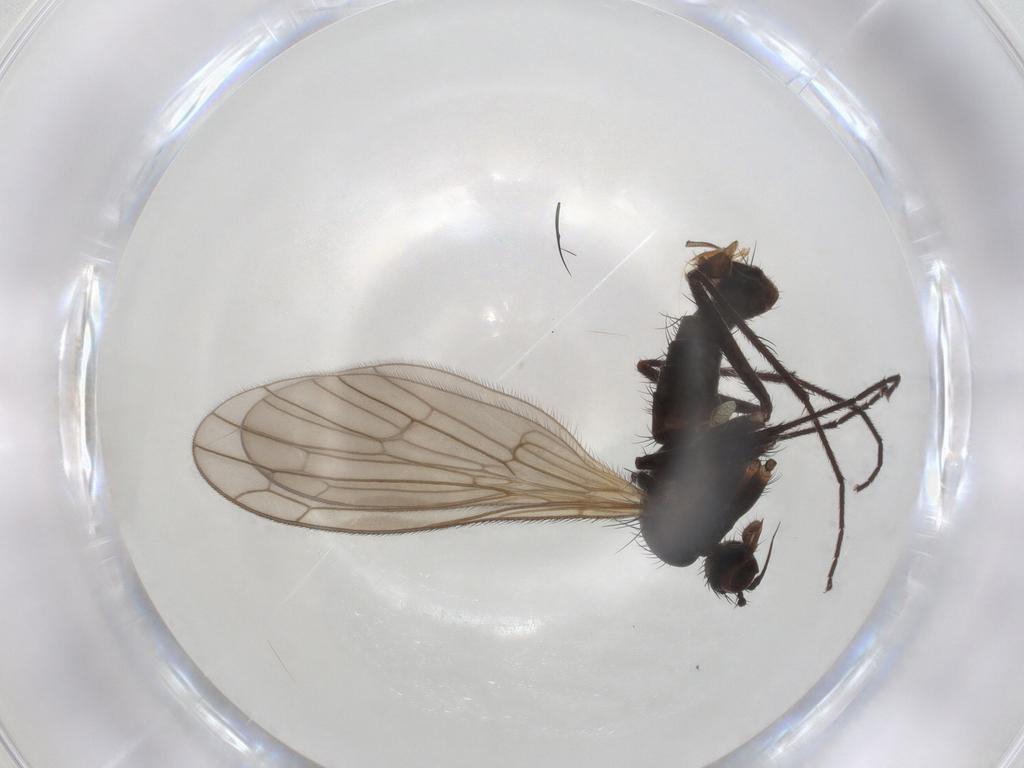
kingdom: Animalia
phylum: Arthropoda
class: Insecta
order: Diptera
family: Empididae
